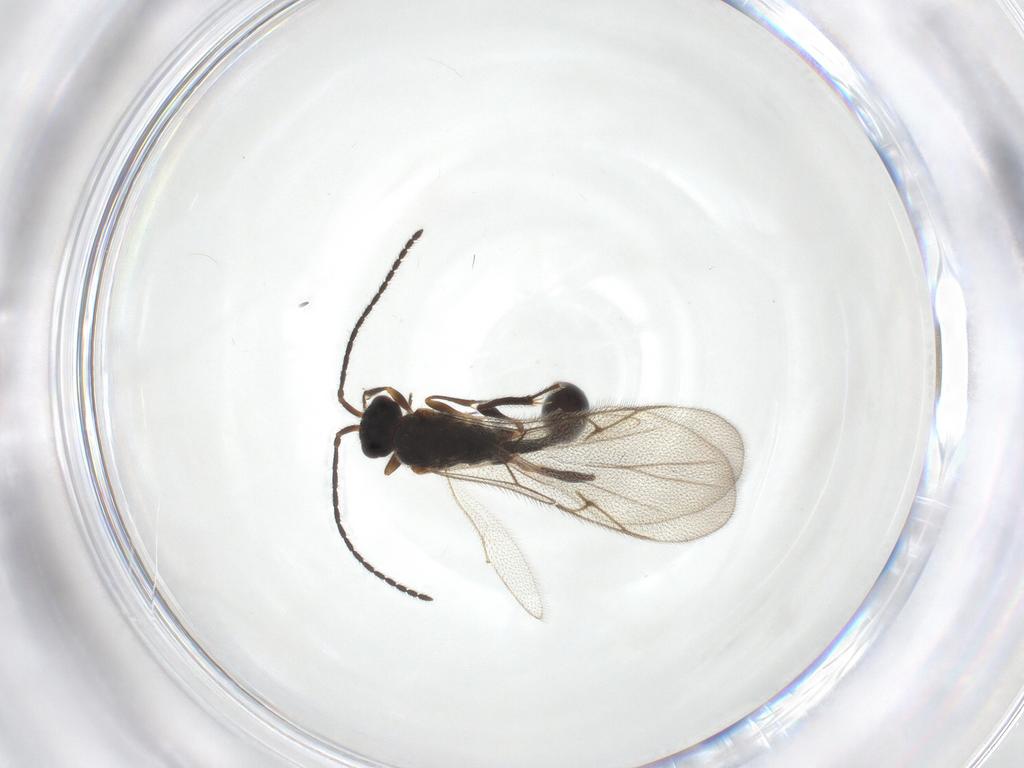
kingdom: Animalia
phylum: Arthropoda
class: Insecta
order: Hymenoptera
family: Diapriidae
